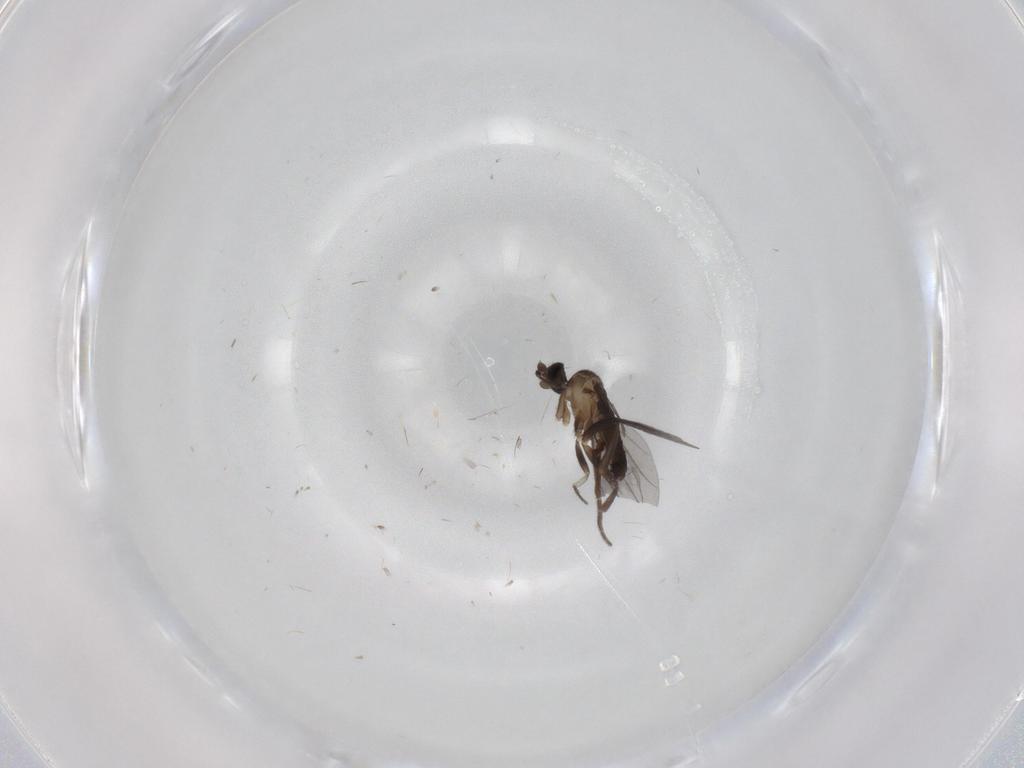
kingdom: Animalia
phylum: Arthropoda
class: Insecta
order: Diptera
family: Phoridae
